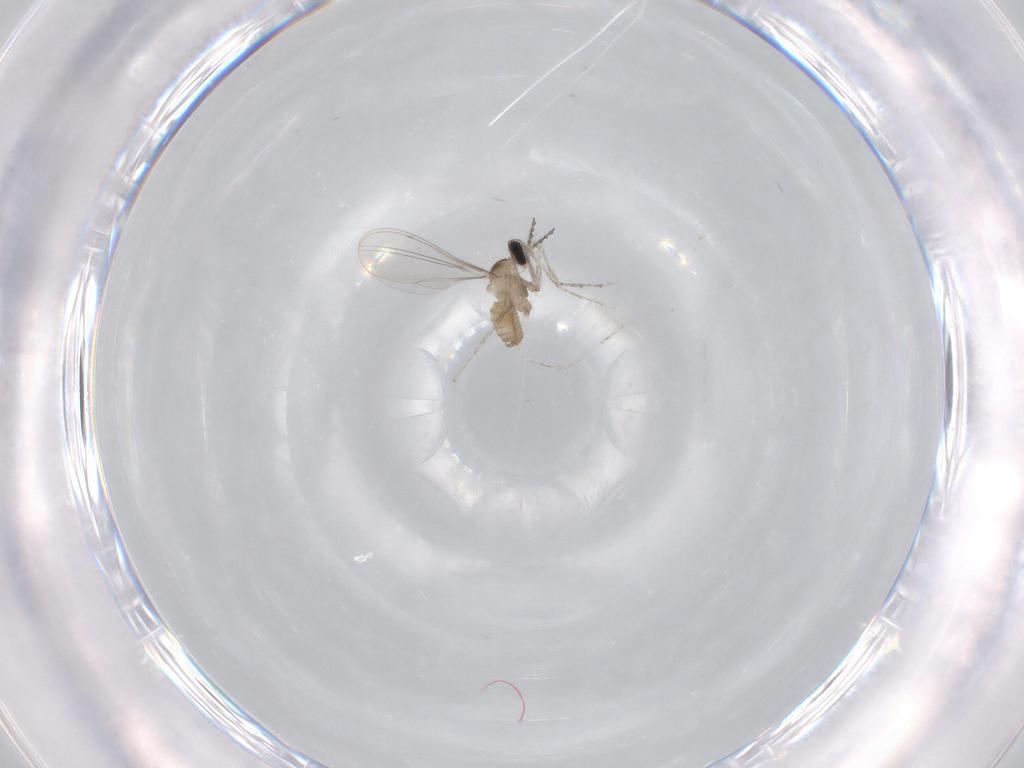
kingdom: Animalia
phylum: Arthropoda
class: Insecta
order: Diptera
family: Cecidomyiidae
